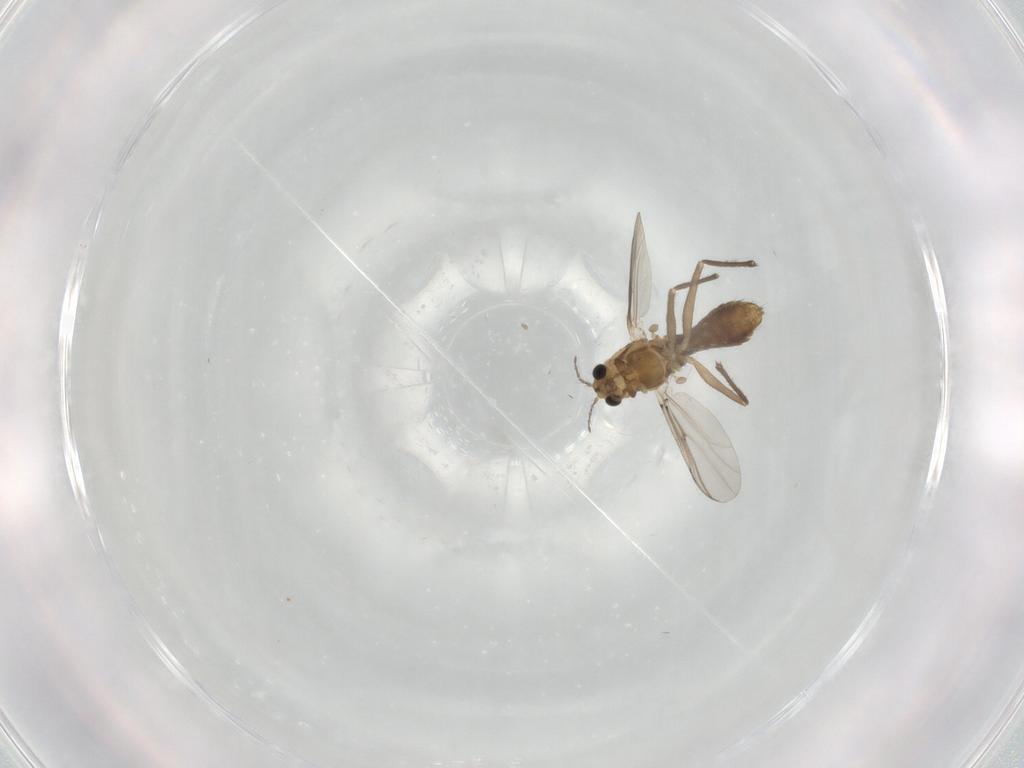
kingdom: Animalia
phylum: Arthropoda
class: Insecta
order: Diptera
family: Chironomidae
